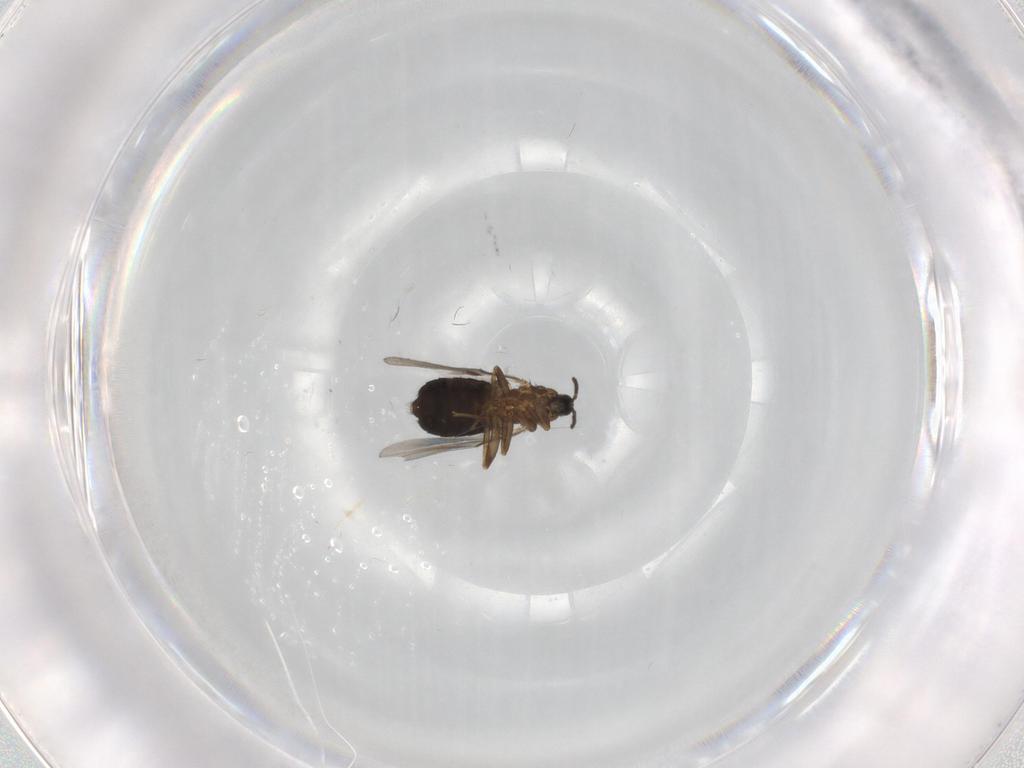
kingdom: Animalia
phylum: Arthropoda
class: Insecta
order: Diptera
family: Scatopsidae
